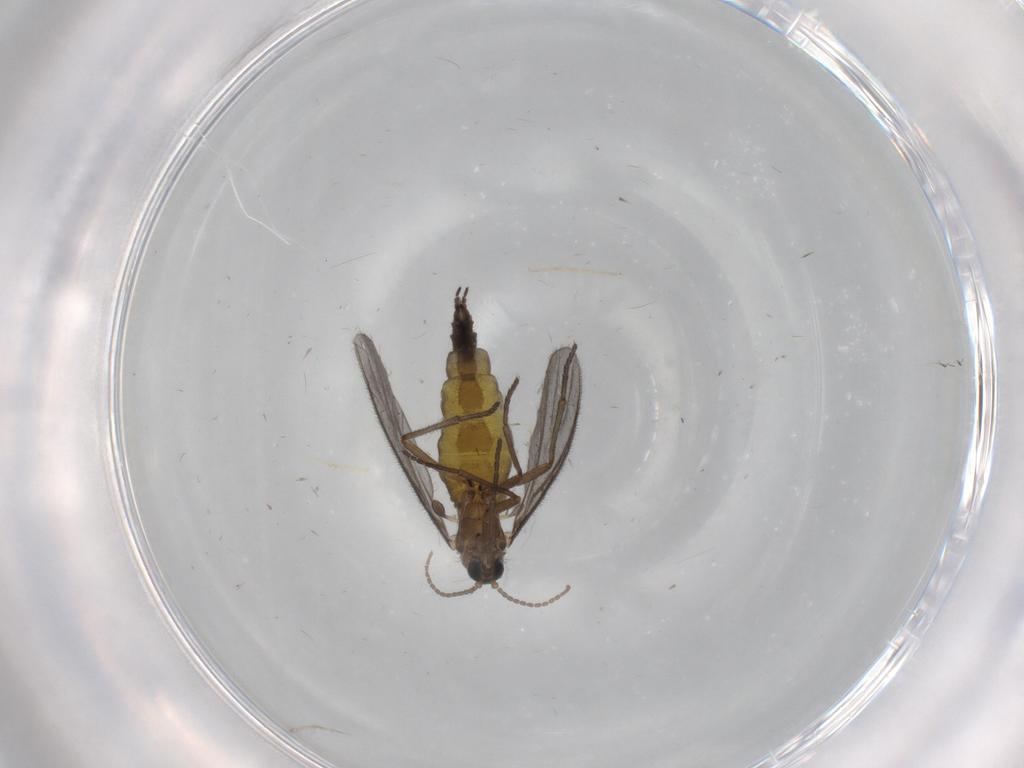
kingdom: Animalia
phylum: Arthropoda
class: Insecta
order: Diptera
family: Sciaridae
